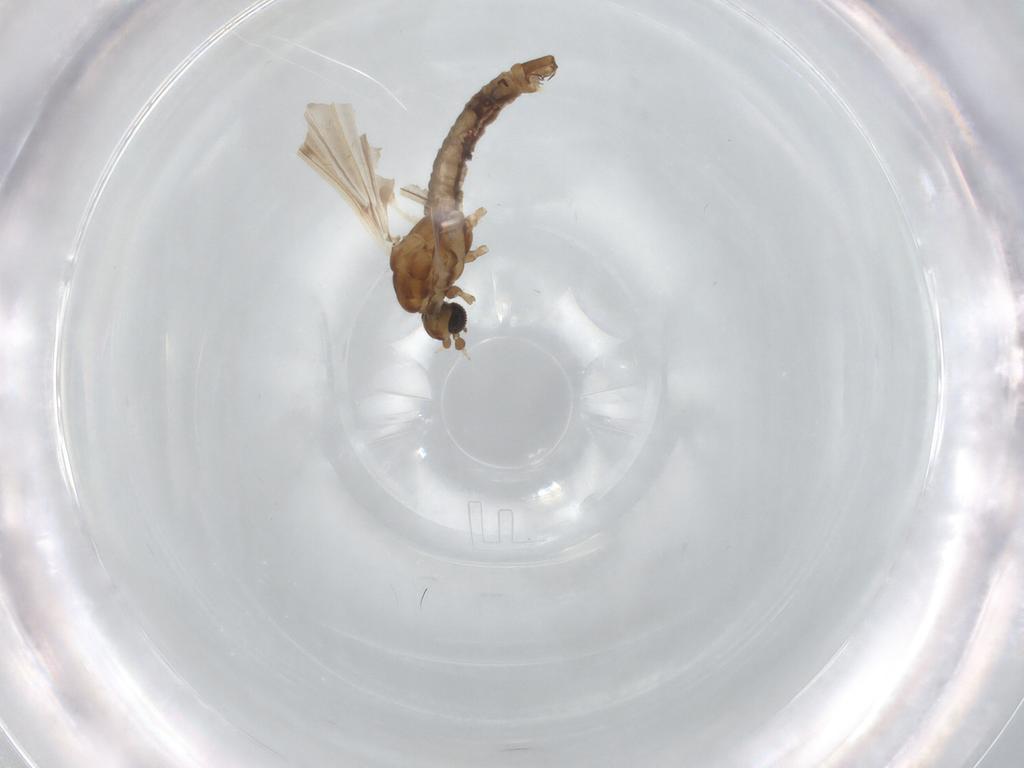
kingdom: Animalia
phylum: Arthropoda
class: Insecta
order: Diptera
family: Limoniidae
